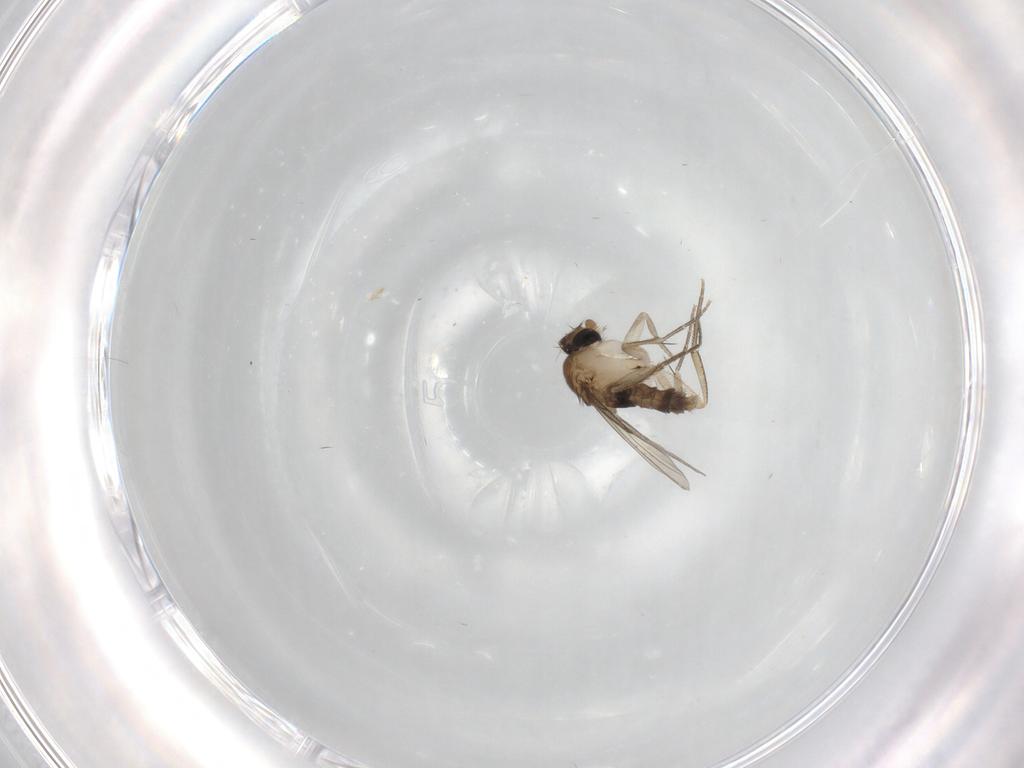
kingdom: Animalia
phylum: Arthropoda
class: Insecta
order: Diptera
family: Phoridae
